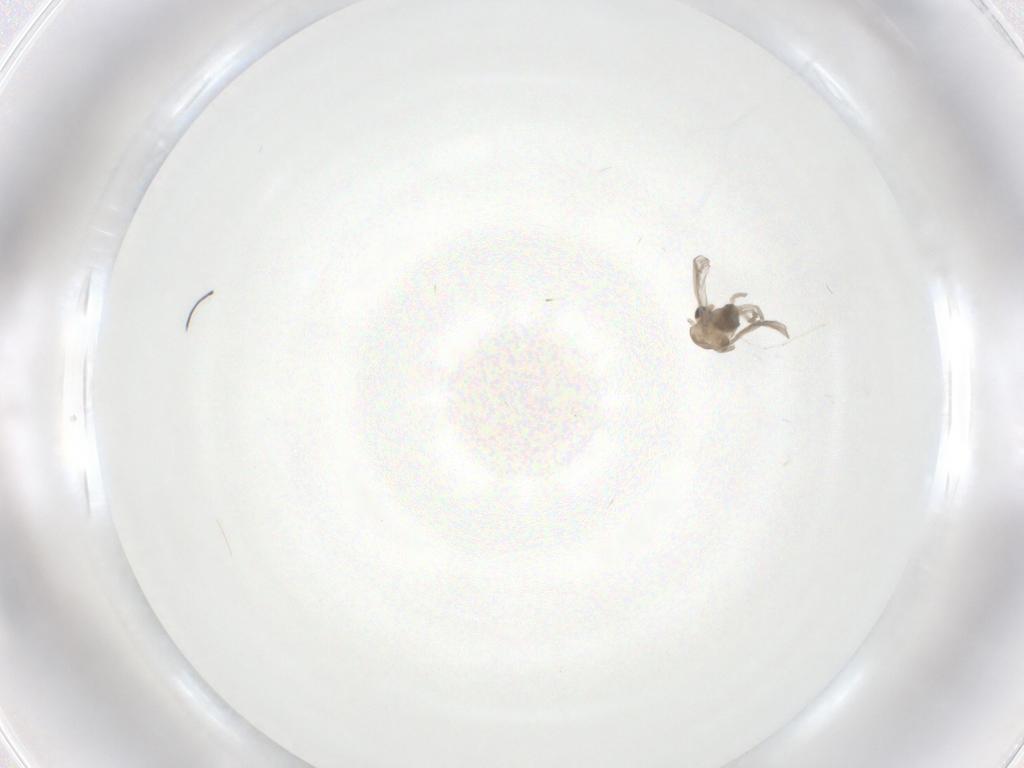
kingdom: Animalia
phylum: Arthropoda
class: Insecta
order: Diptera
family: Chironomidae
